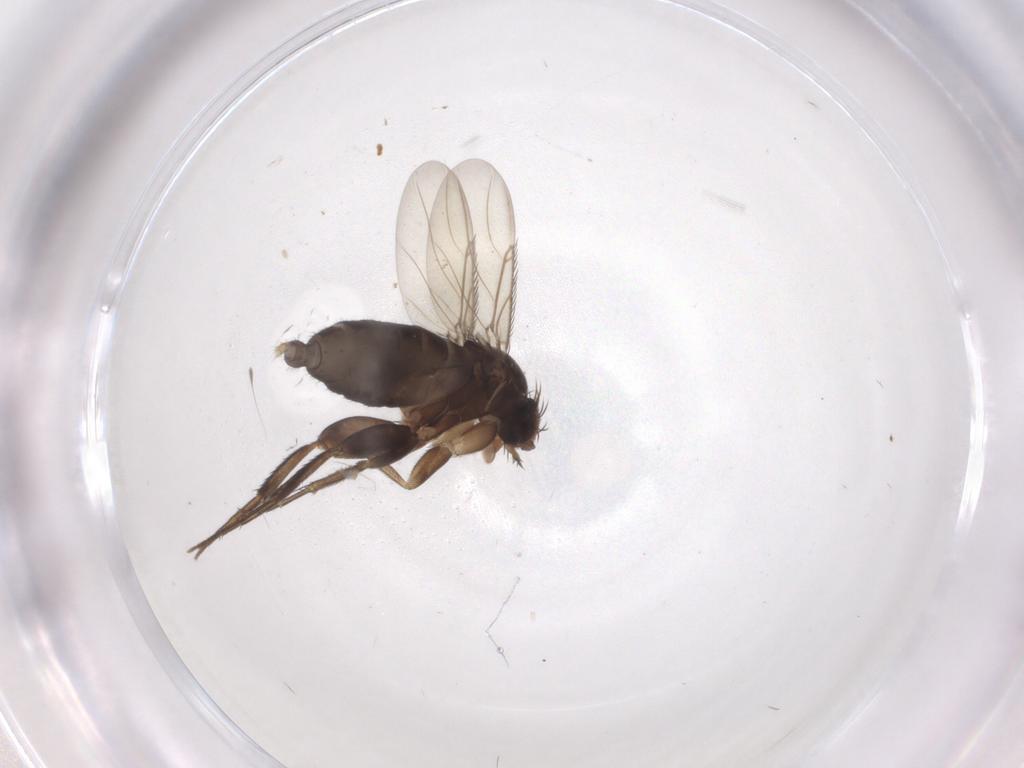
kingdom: Animalia
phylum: Arthropoda
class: Insecta
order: Diptera
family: Phoridae
